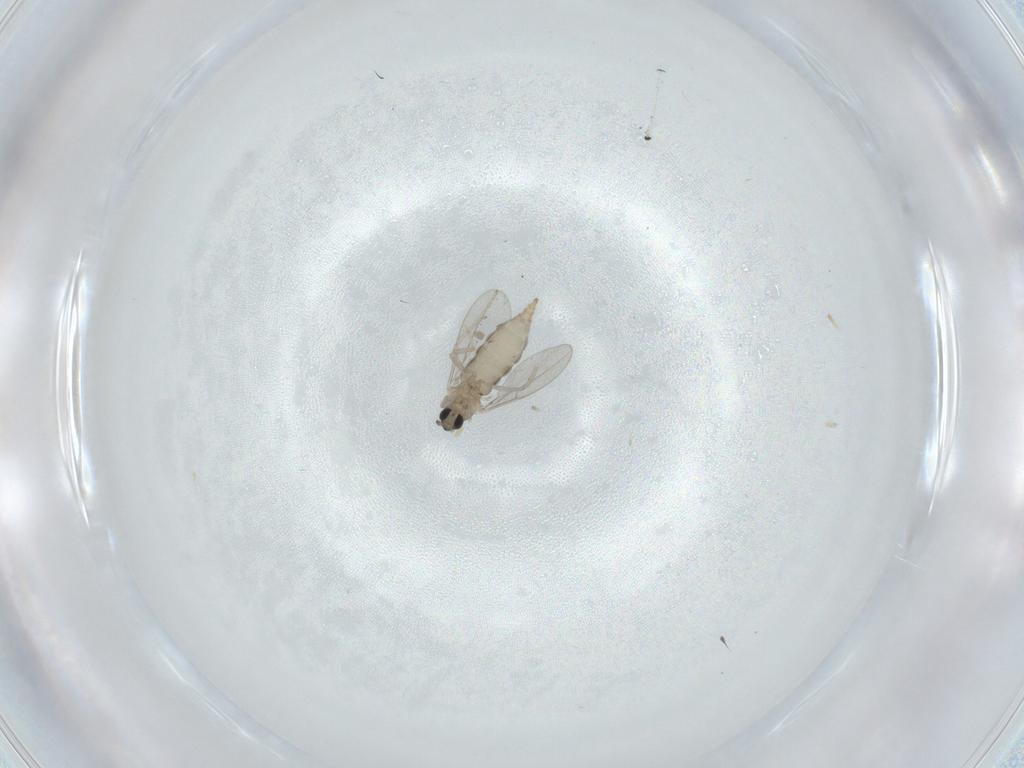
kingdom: Animalia
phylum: Arthropoda
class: Insecta
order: Diptera
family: Cecidomyiidae
